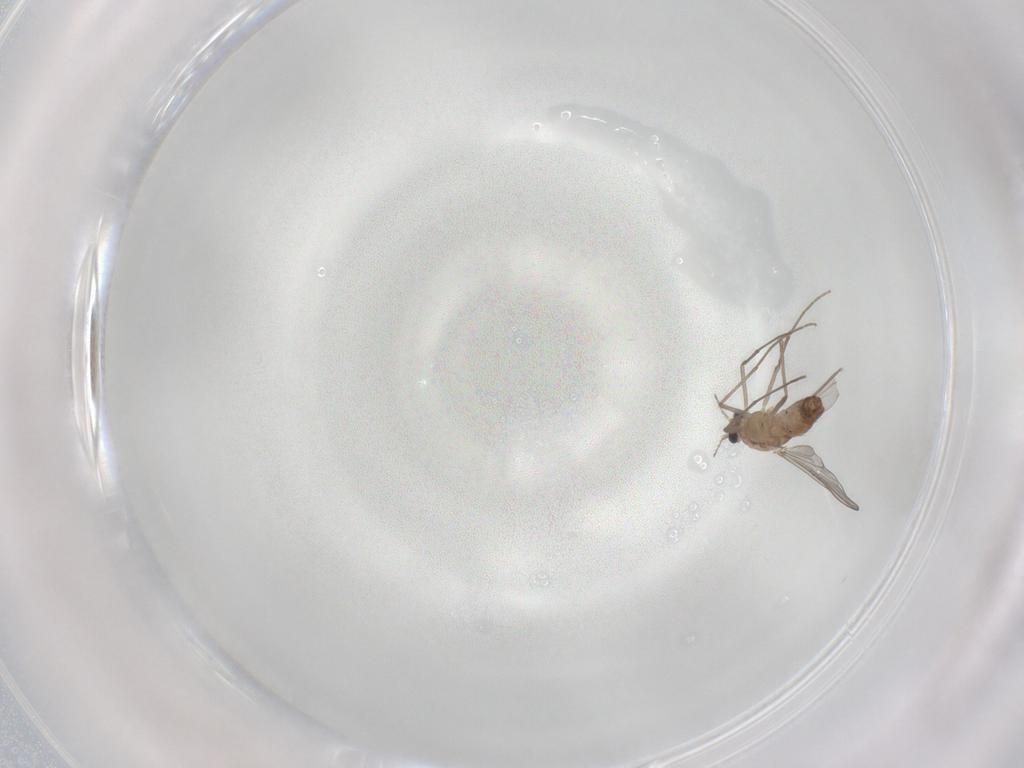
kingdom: Animalia
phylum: Arthropoda
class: Insecta
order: Diptera
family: Chironomidae
